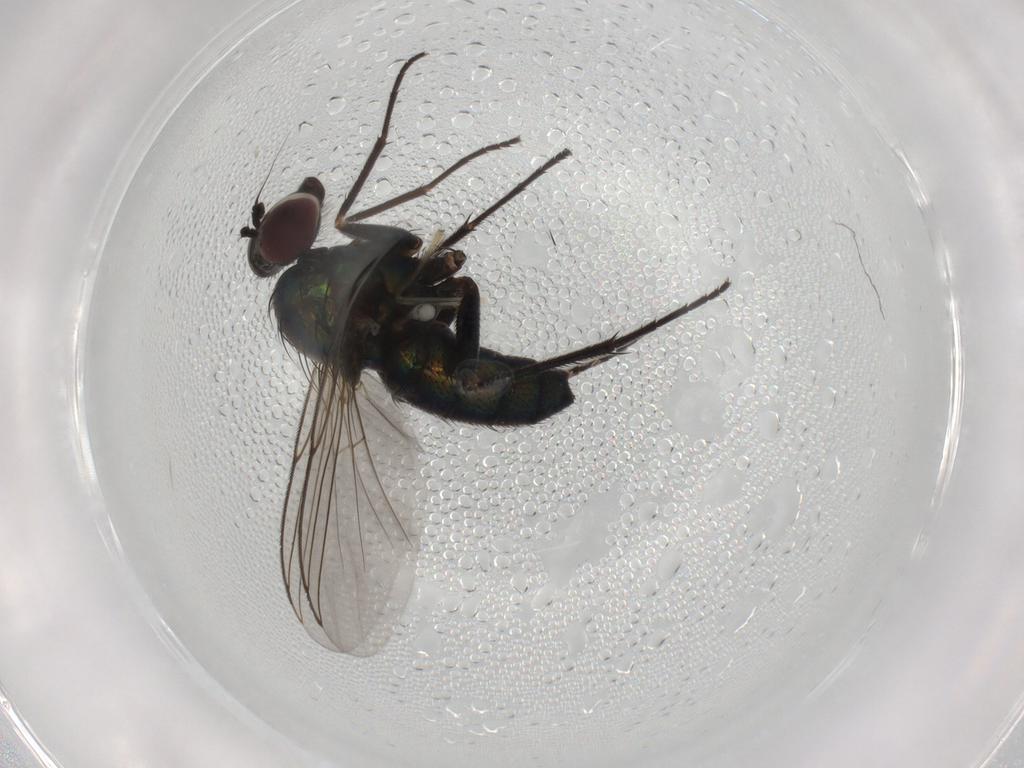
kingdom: Animalia
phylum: Arthropoda
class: Insecta
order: Diptera
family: Dolichopodidae
